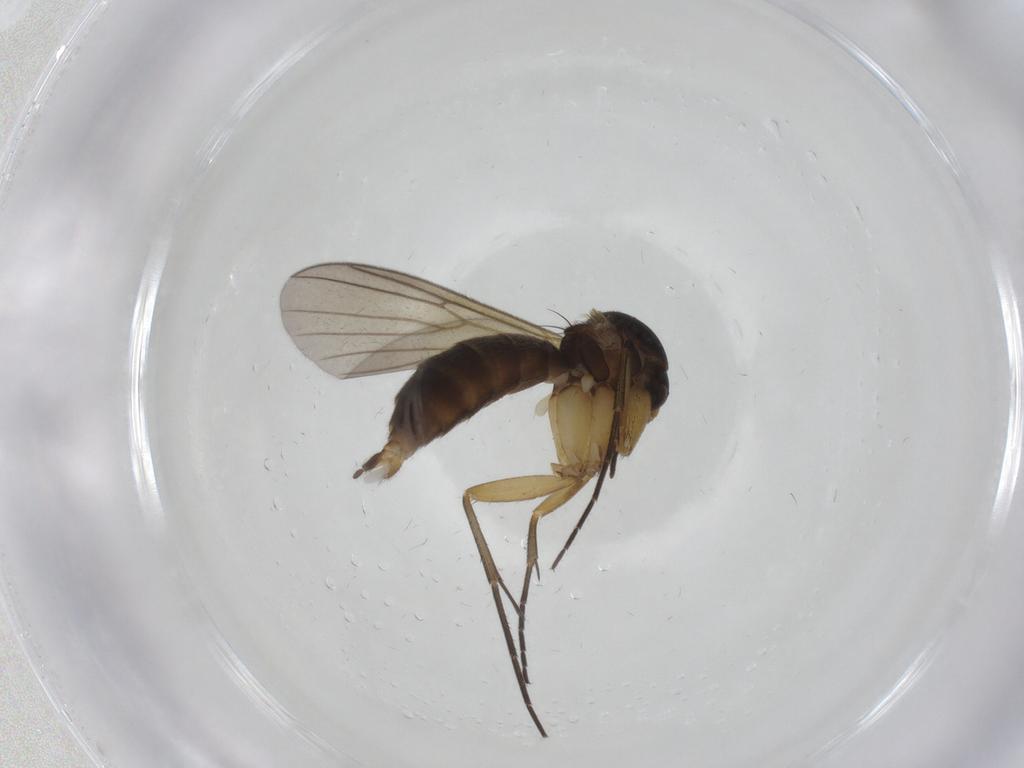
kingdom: Animalia
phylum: Arthropoda
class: Insecta
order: Diptera
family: Mycetophilidae
